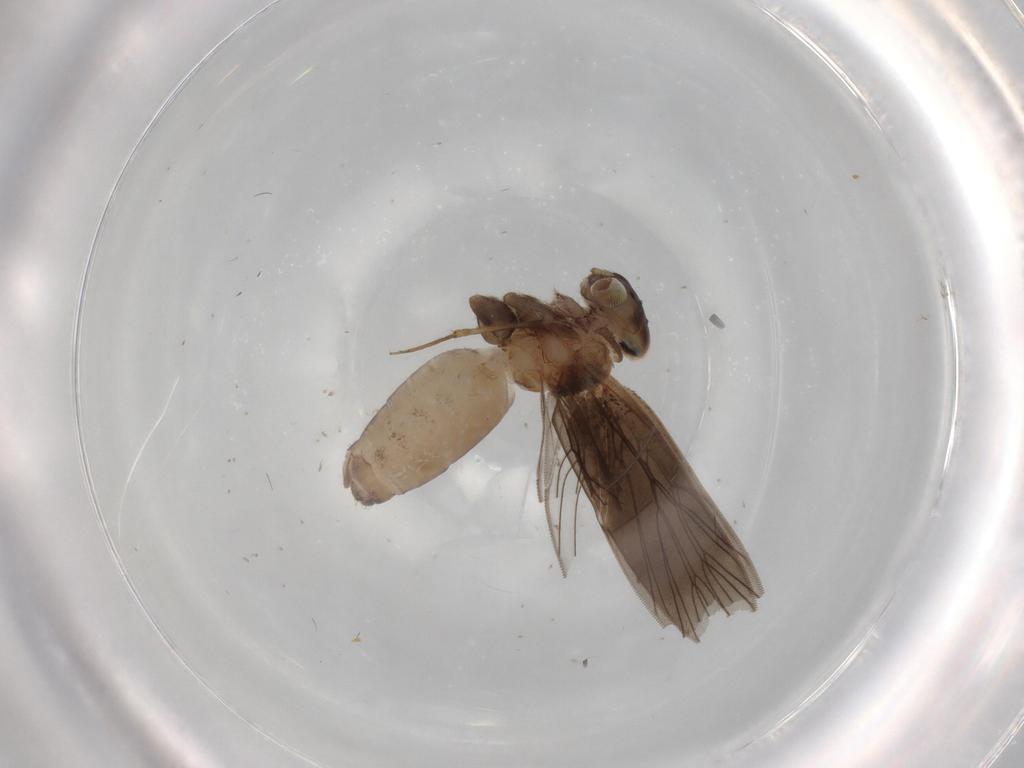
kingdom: Animalia
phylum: Arthropoda
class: Insecta
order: Psocodea
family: Lepidopsocidae
